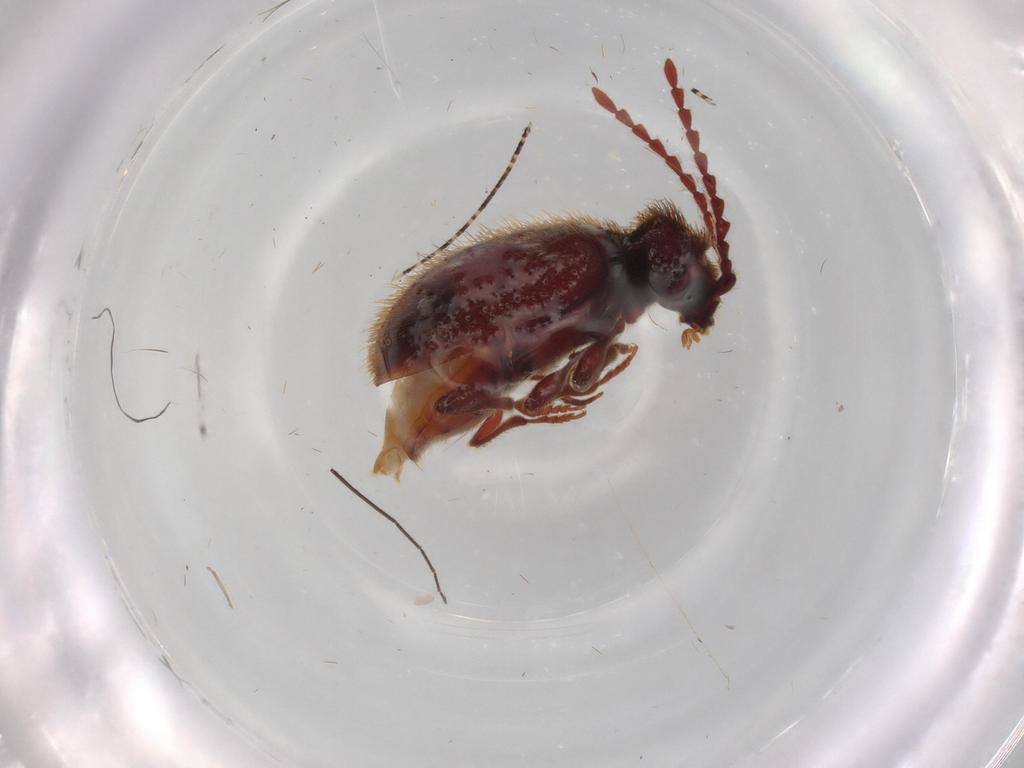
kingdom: Animalia
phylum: Arthropoda
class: Insecta
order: Coleoptera
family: Ptinidae
